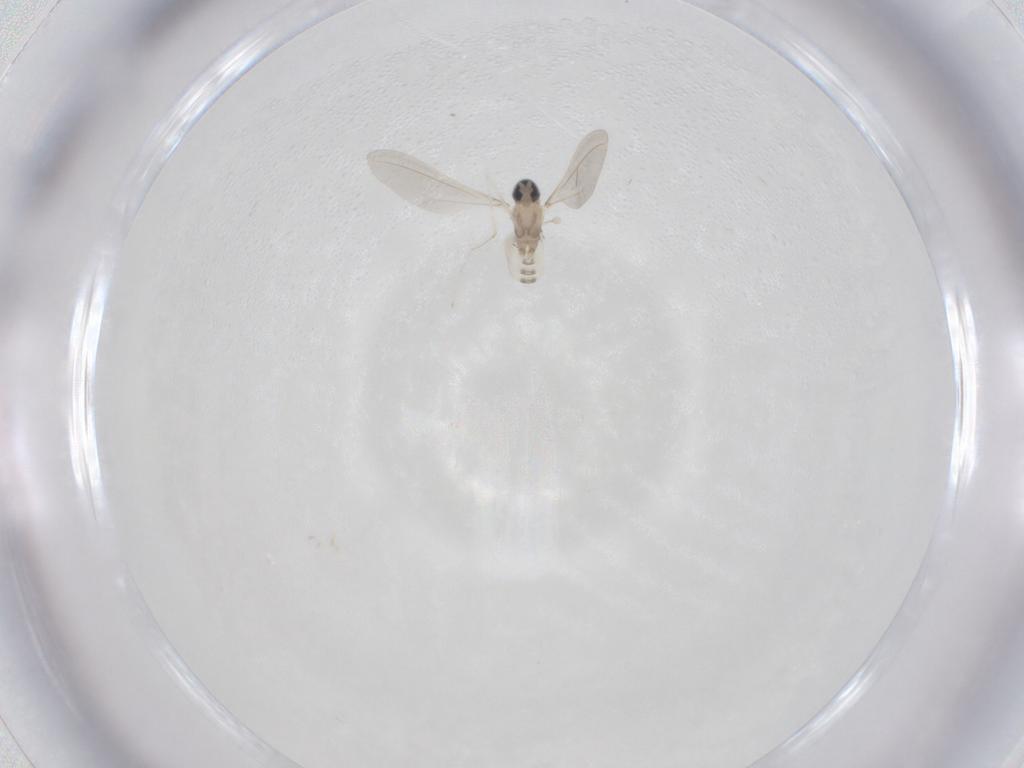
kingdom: Animalia
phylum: Arthropoda
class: Insecta
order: Diptera
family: Cecidomyiidae
